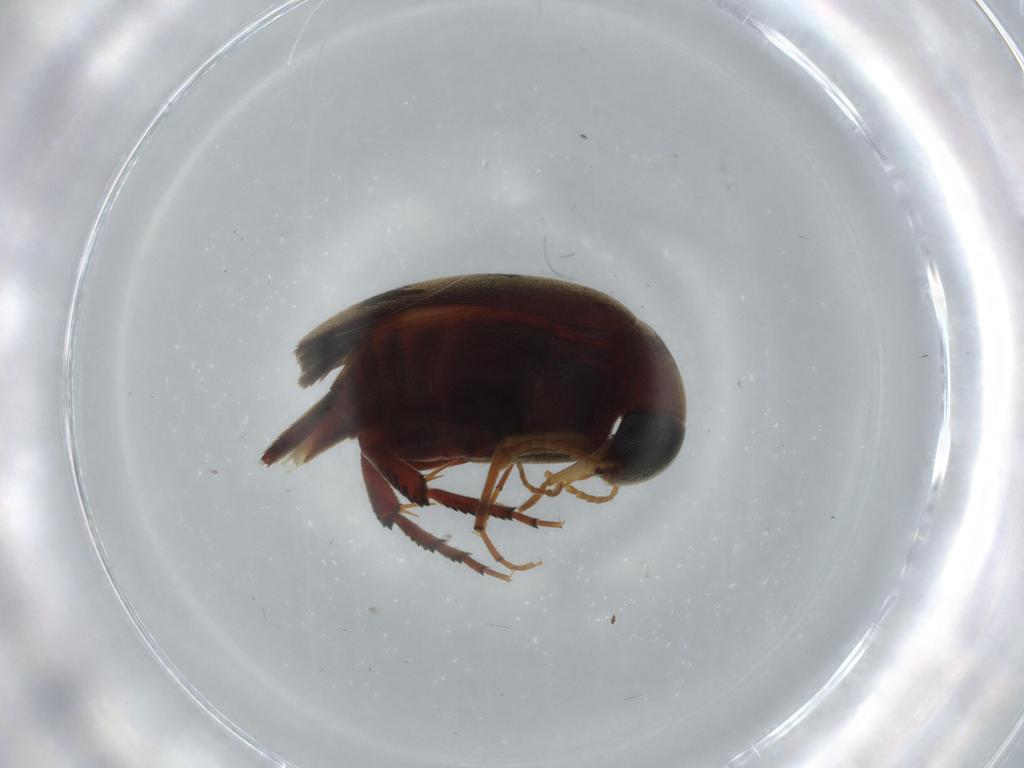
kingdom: Animalia
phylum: Arthropoda
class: Insecta
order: Coleoptera
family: Mordellidae
